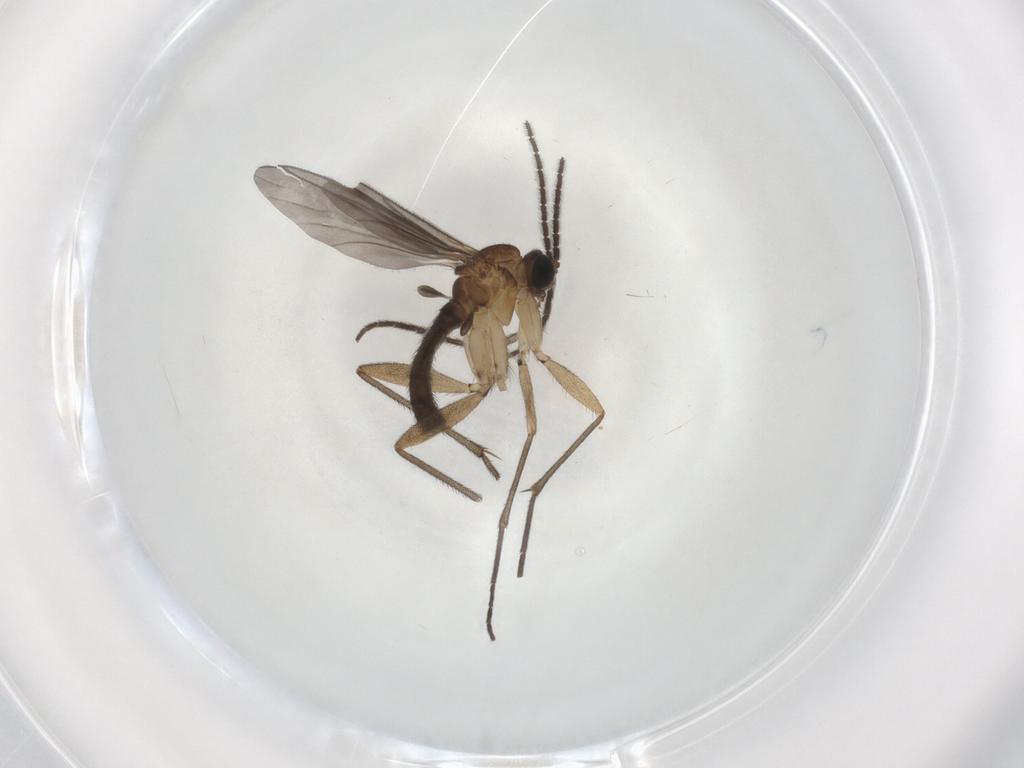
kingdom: Animalia
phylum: Arthropoda
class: Insecta
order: Diptera
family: Sciaridae
